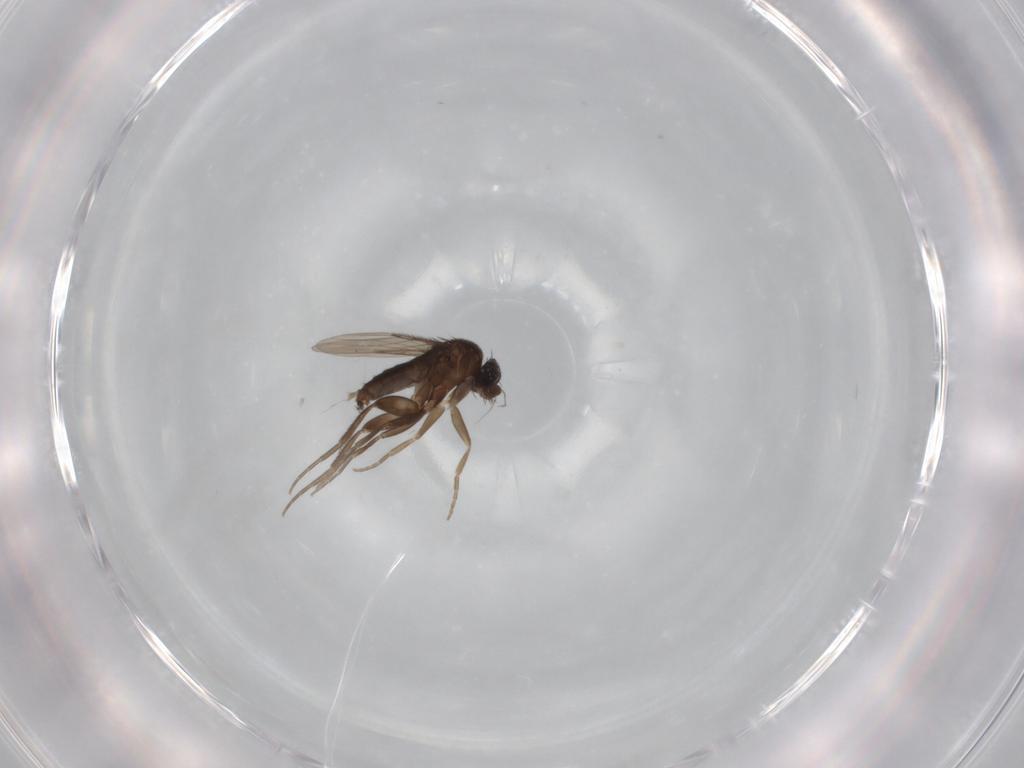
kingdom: Animalia
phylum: Arthropoda
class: Insecta
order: Diptera
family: Phoridae
